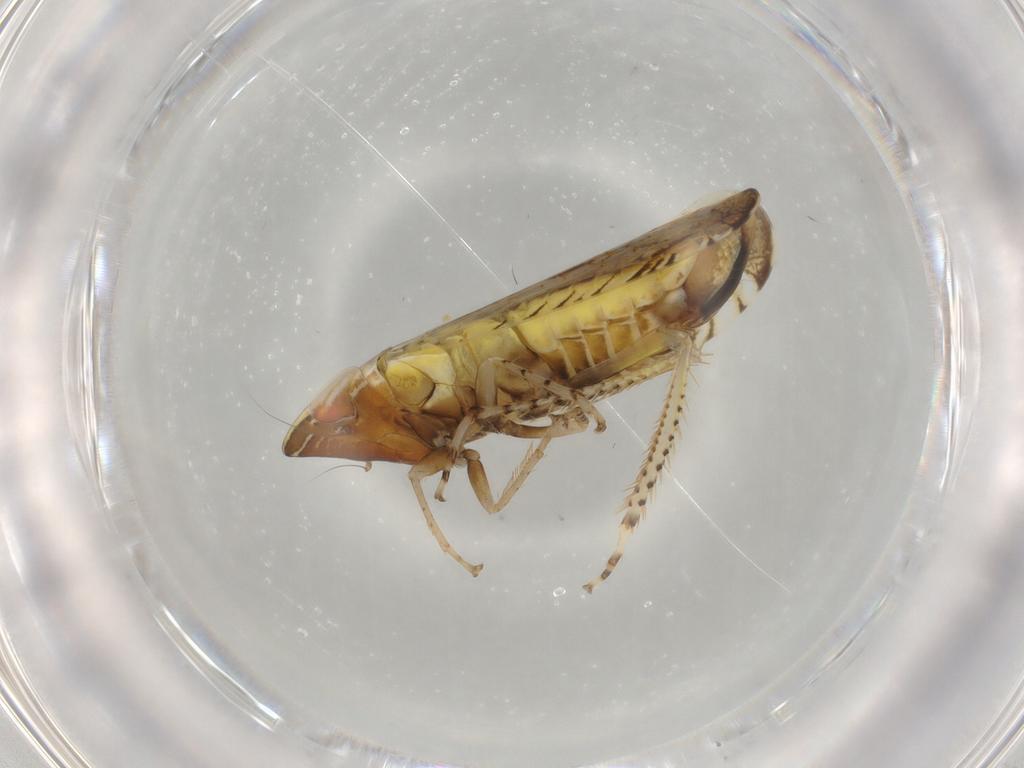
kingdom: Animalia
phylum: Arthropoda
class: Insecta
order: Hemiptera
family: Cicadellidae
